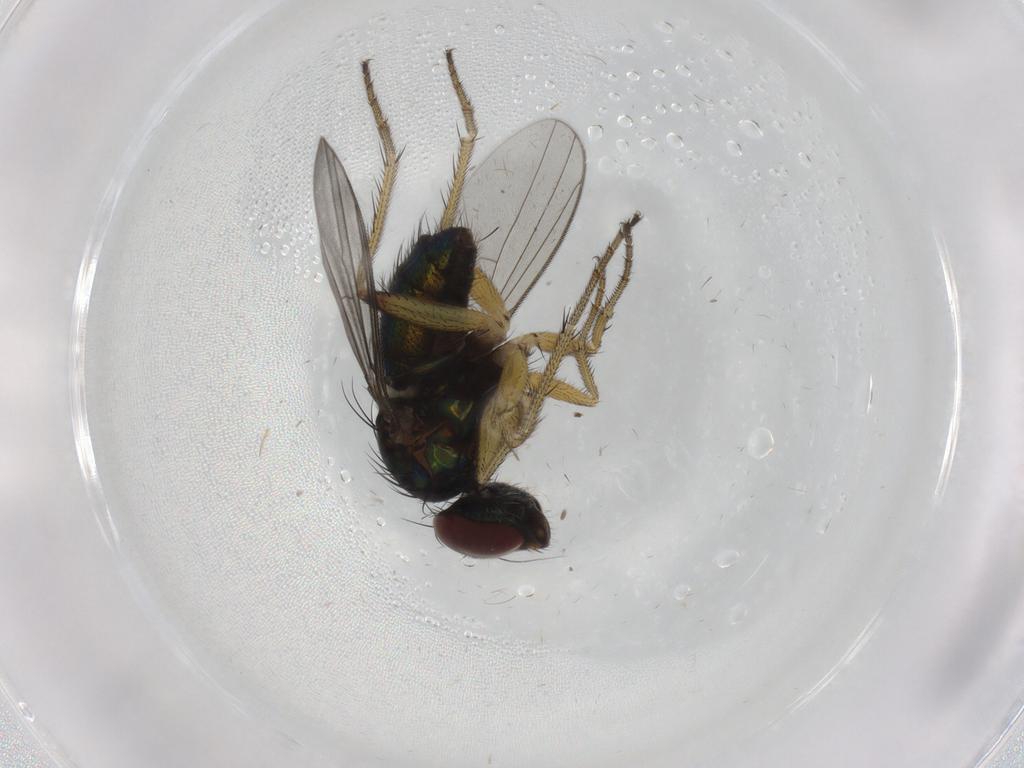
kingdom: Animalia
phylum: Arthropoda
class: Insecta
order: Diptera
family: Dolichopodidae
